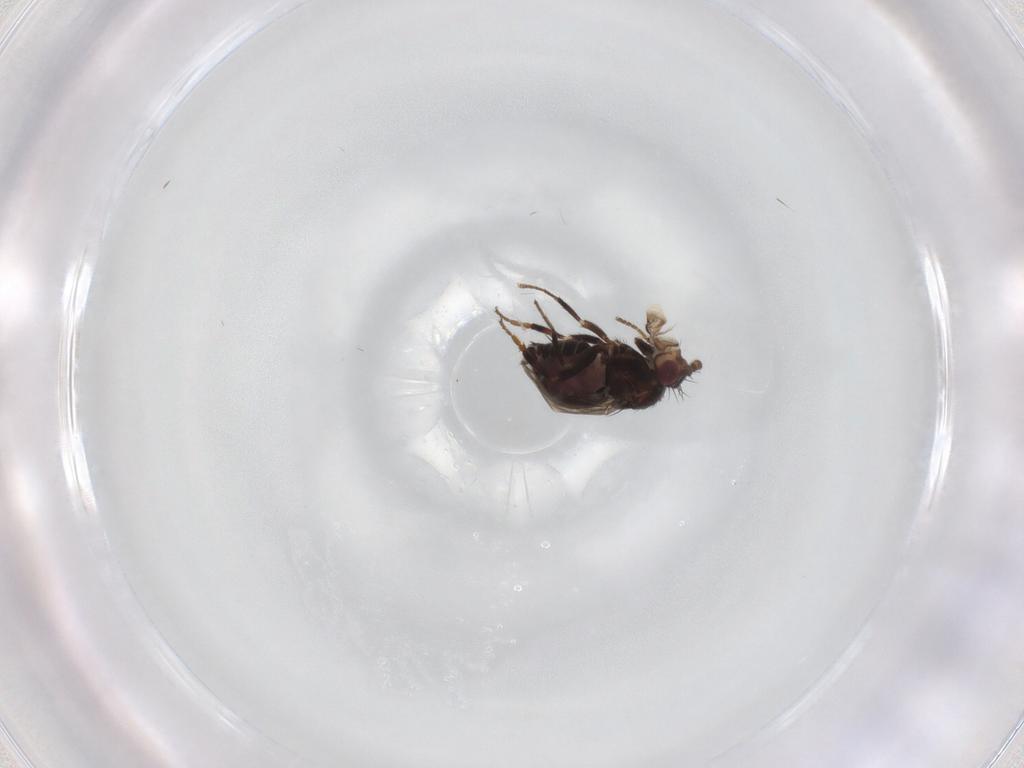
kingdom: Animalia
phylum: Arthropoda
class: Insecta
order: Diptera
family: Sphaeroceridae
